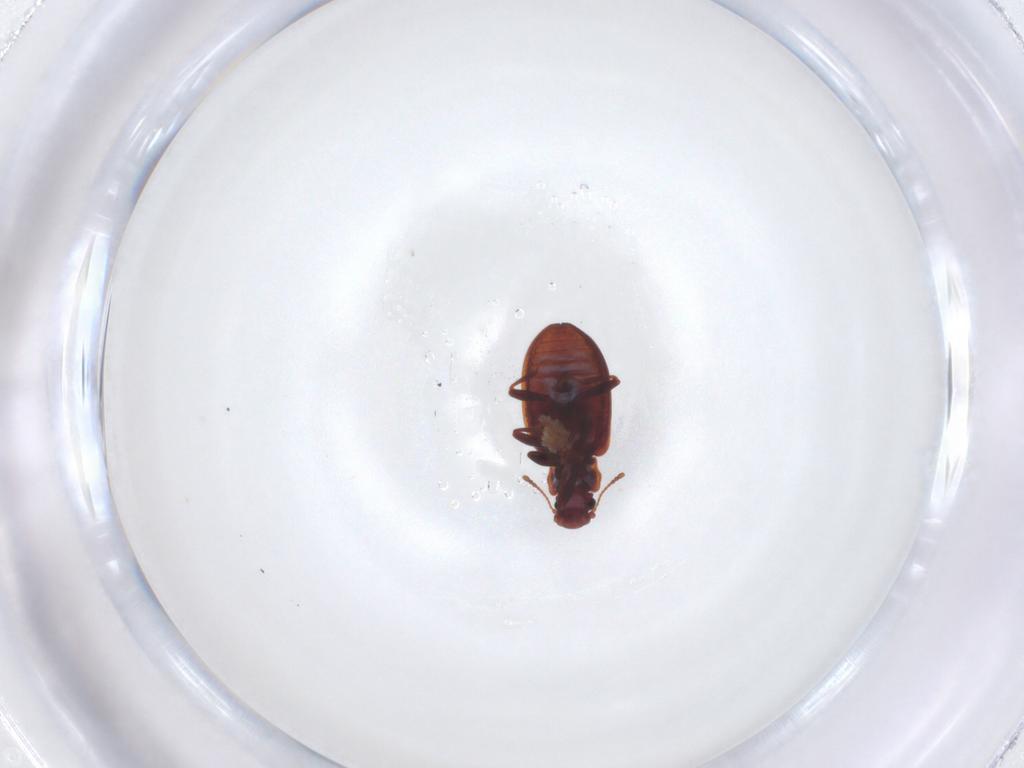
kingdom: Animalia
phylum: Arthropoda
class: Insecta
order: Coleoptera
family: Latridiidae
